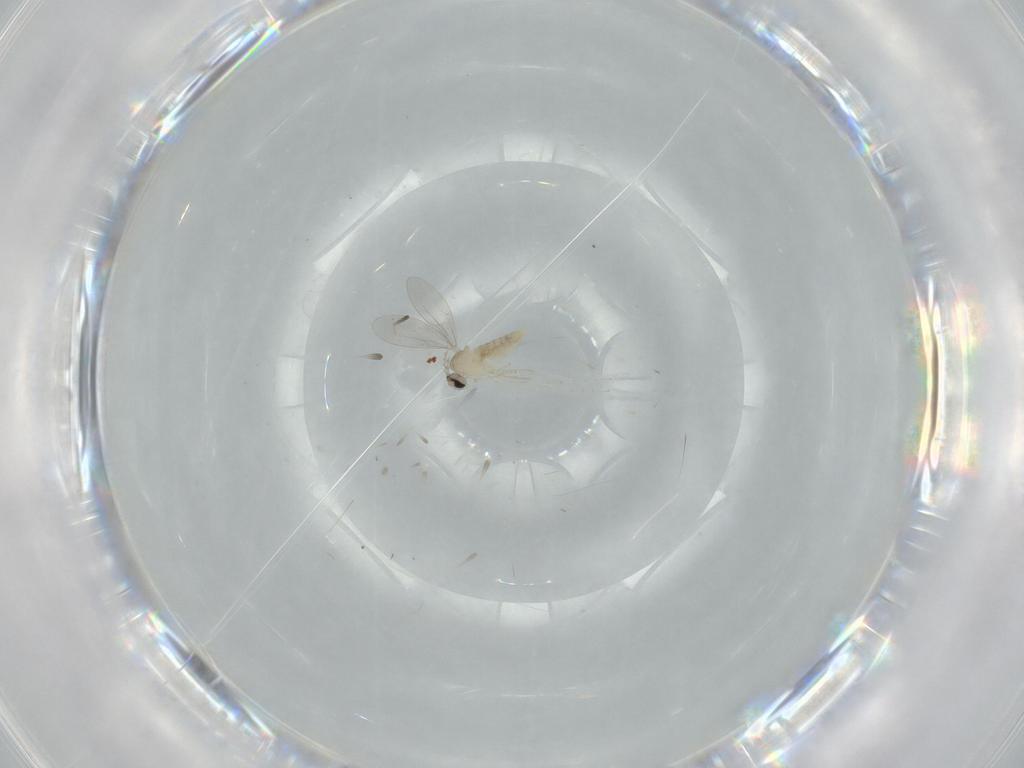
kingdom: Animalia
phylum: Arthropoda
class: Insecta
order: Diptera
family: Cecidomyiidae
